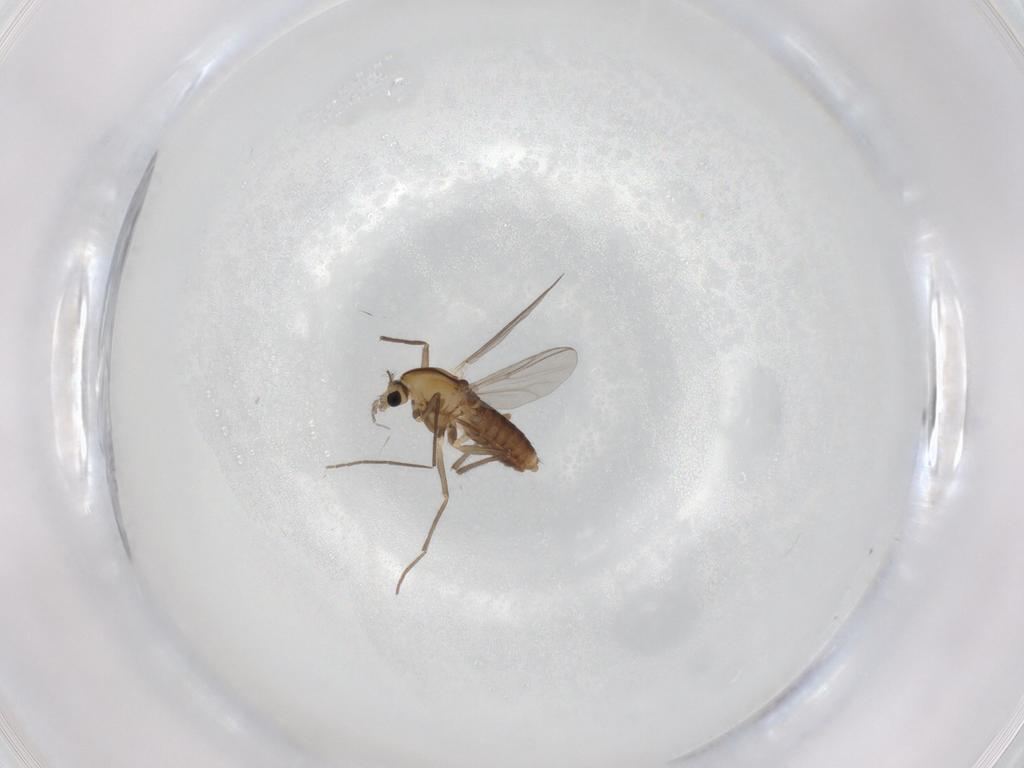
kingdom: Animalia
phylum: Arthropoda
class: Insecta
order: Diptera
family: Chironomidae
